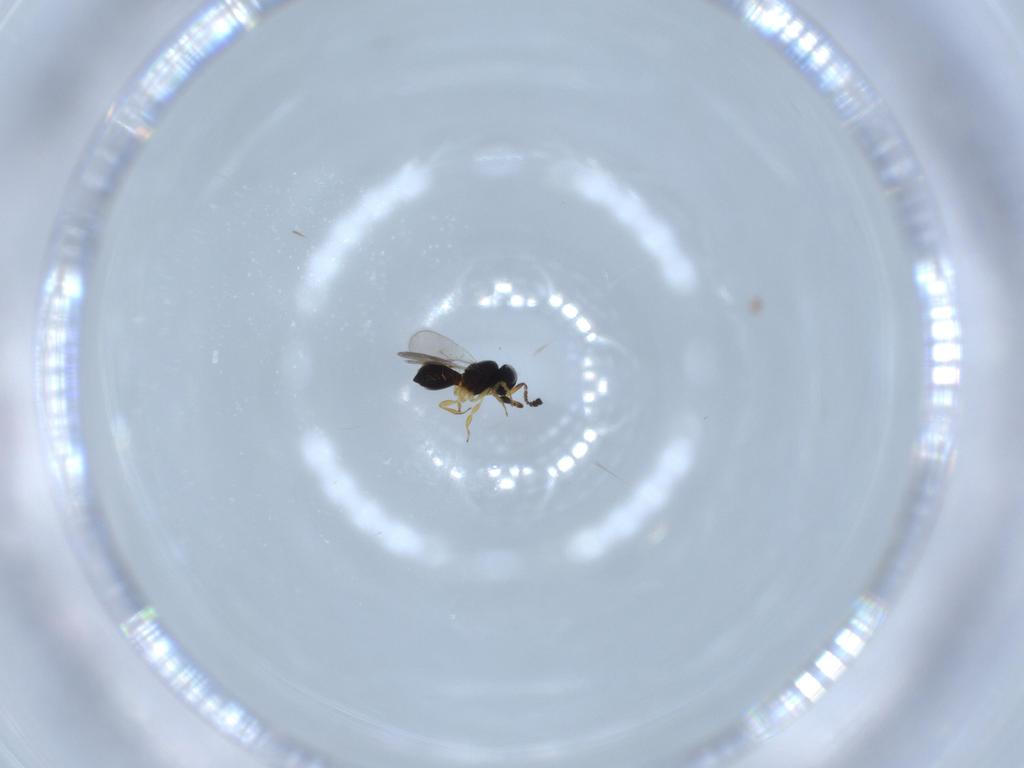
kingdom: Animalia
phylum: Arthropoda
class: Insecta
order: Hymenoptera
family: Scelionidae
